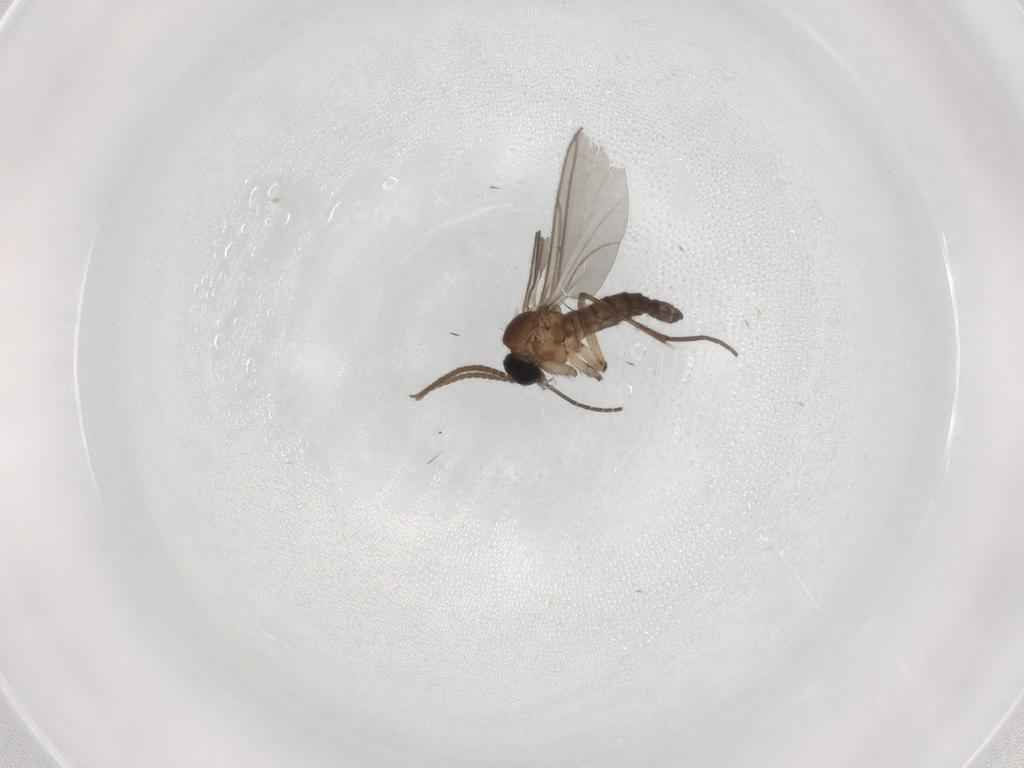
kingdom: Animalia
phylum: Arthropoda
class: Insecta
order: Diptera
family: Cecidomyiidae
